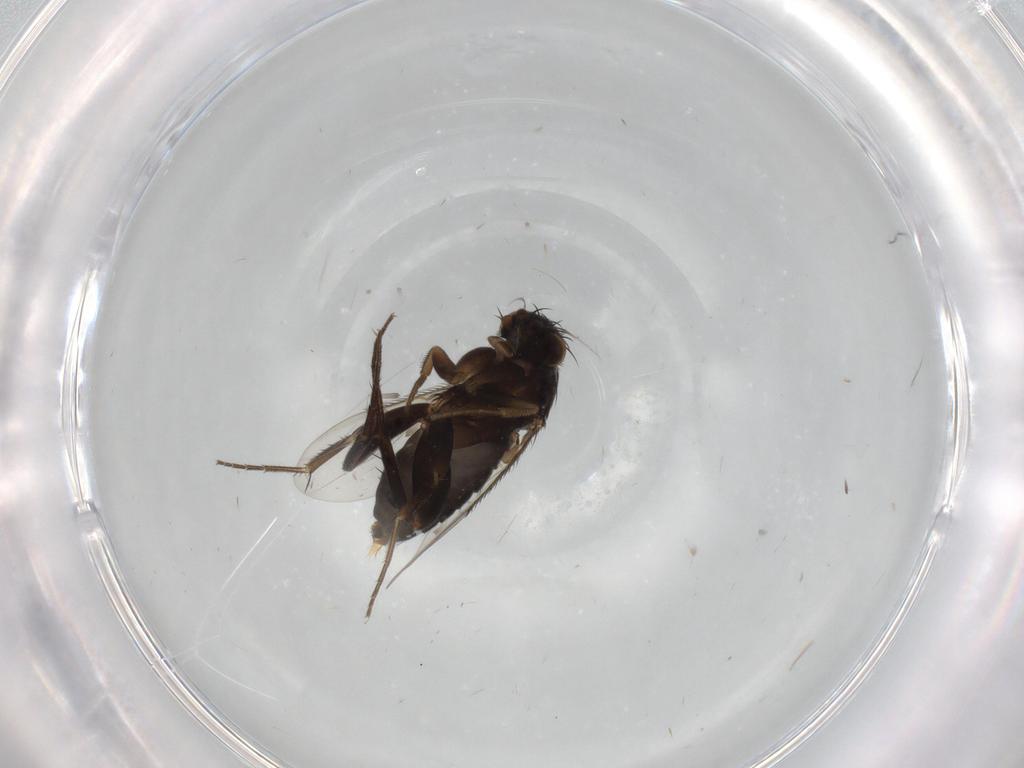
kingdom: Animalia
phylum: Arthropoda
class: Insecta
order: Diptera
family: Phoridae
